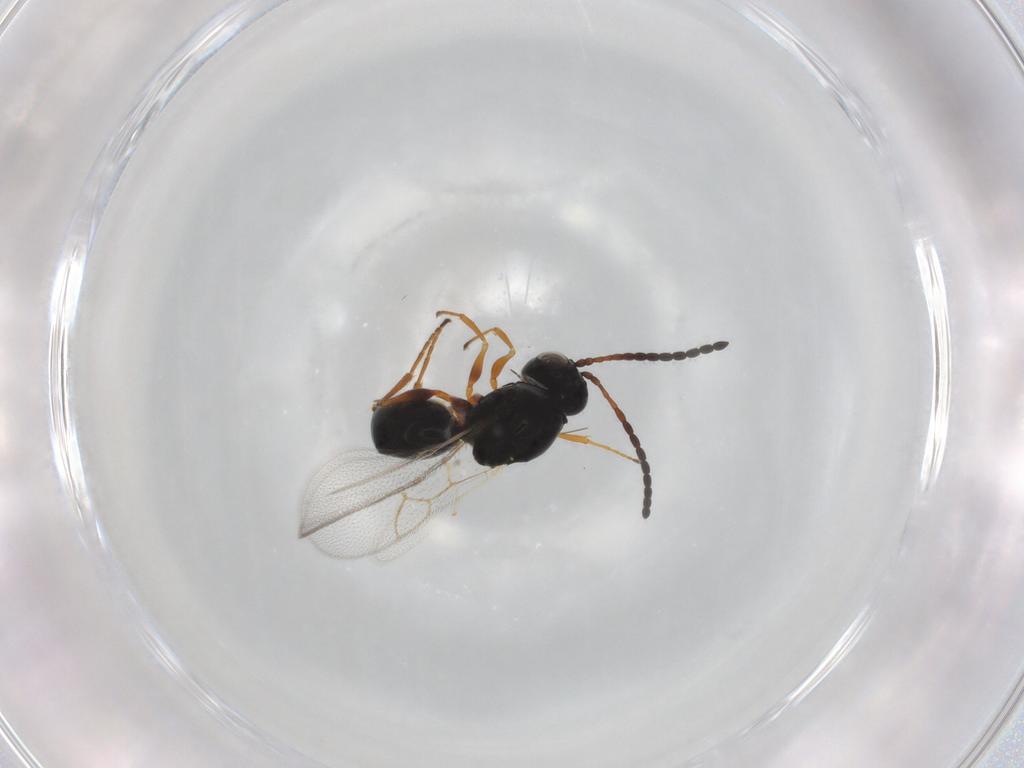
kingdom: Animalia
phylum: Arthropoda
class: Insecta
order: Hymenoptera
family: Figitidae
